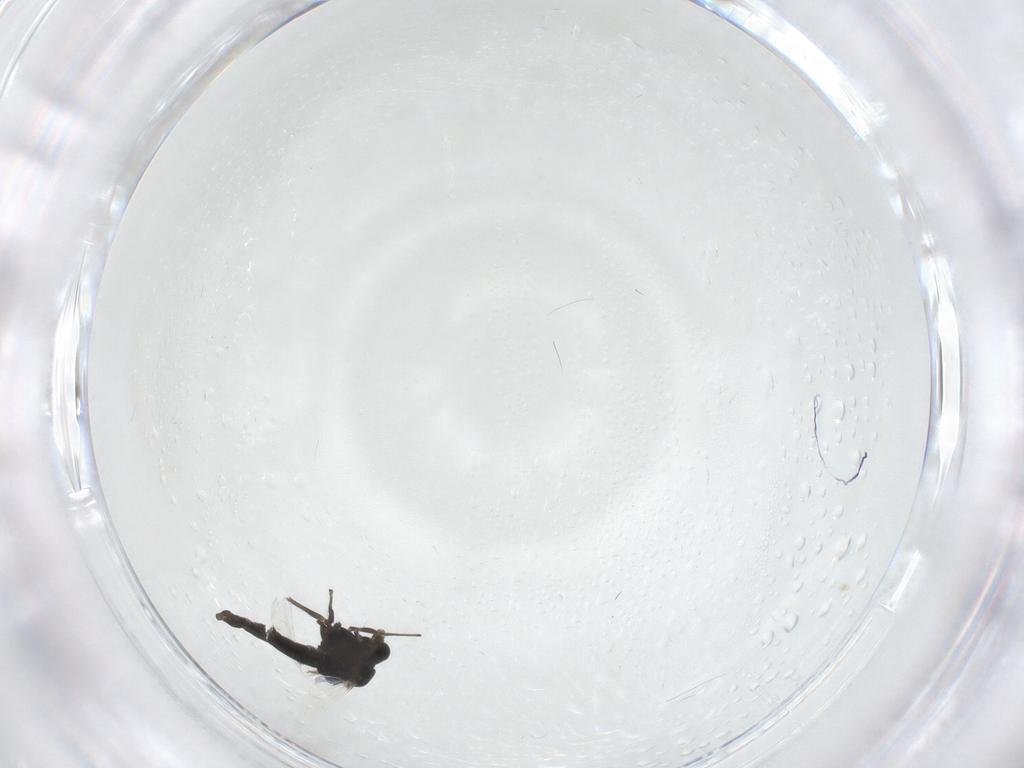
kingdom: Animalia
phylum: Arthropoda
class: Insecta
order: Diptera
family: Chironomidae
